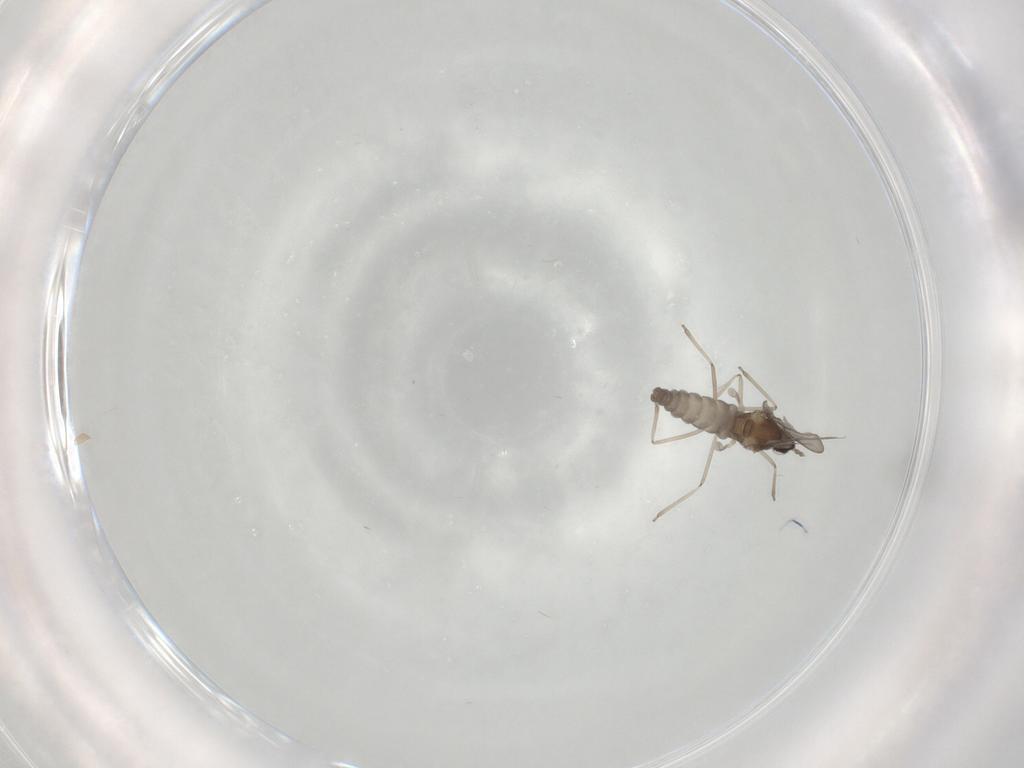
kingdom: Animalia
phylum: Arthropoda
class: Insecta
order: Diptera
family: Cecidomyiidae
